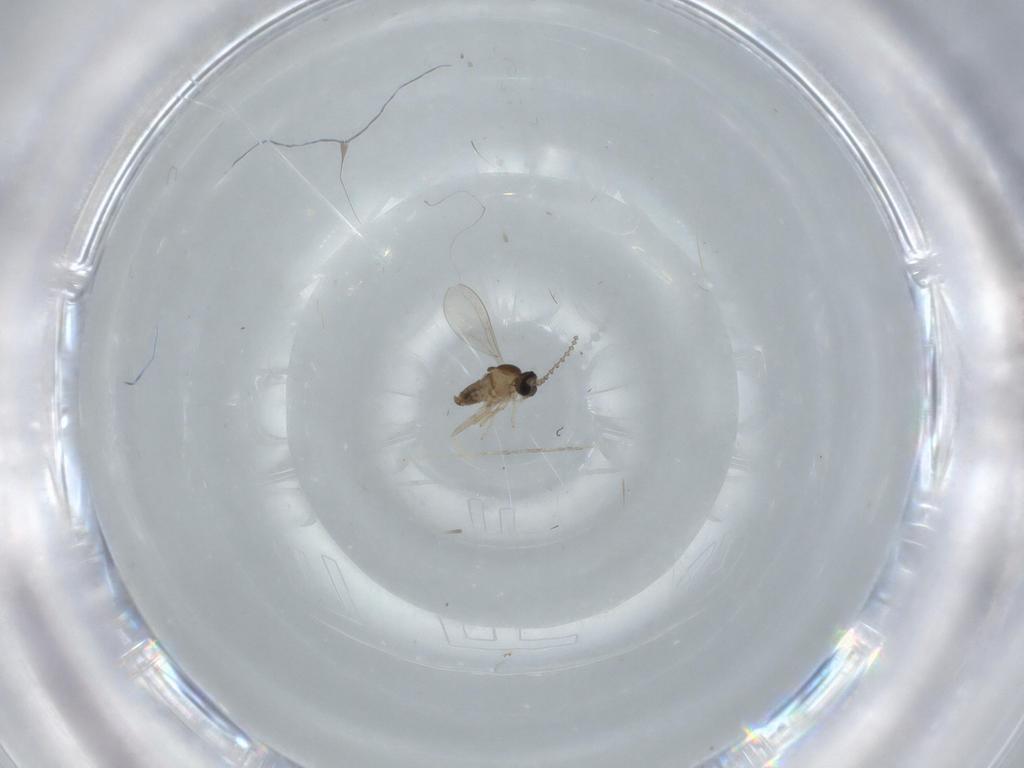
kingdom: Animalia
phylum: Arthropoda
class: Insecta
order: Diptera
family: Cecidomyiidae
